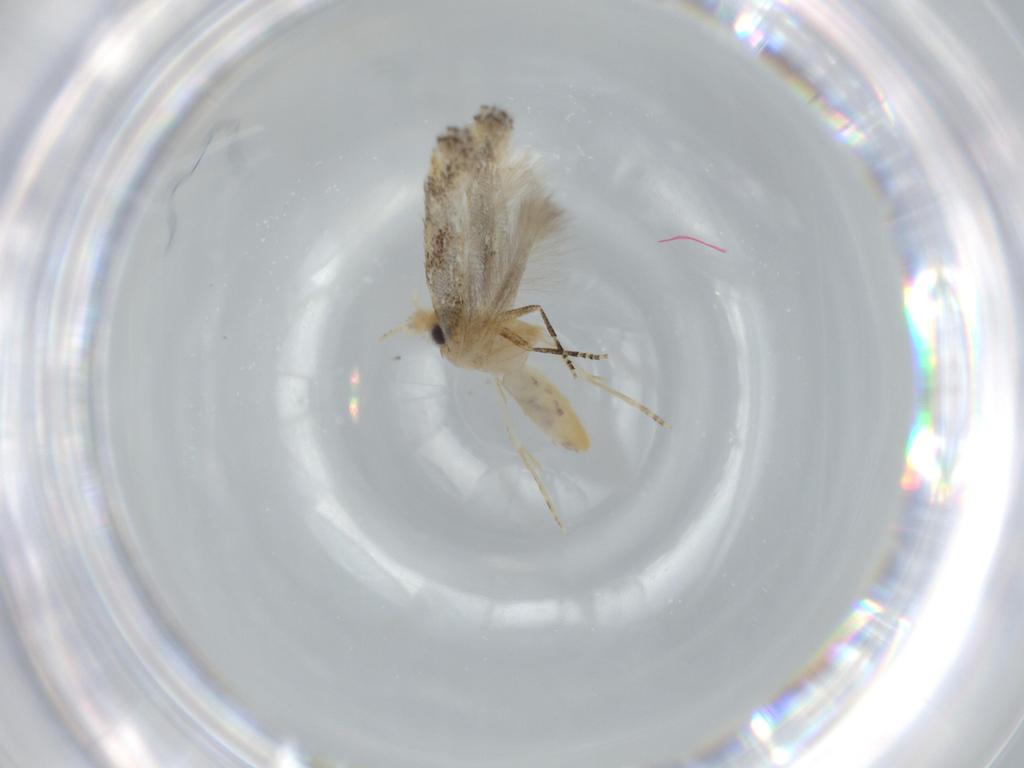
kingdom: Animalia
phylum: Arthropoda
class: Insecta
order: Lepidoptera
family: Bucculatricidae
